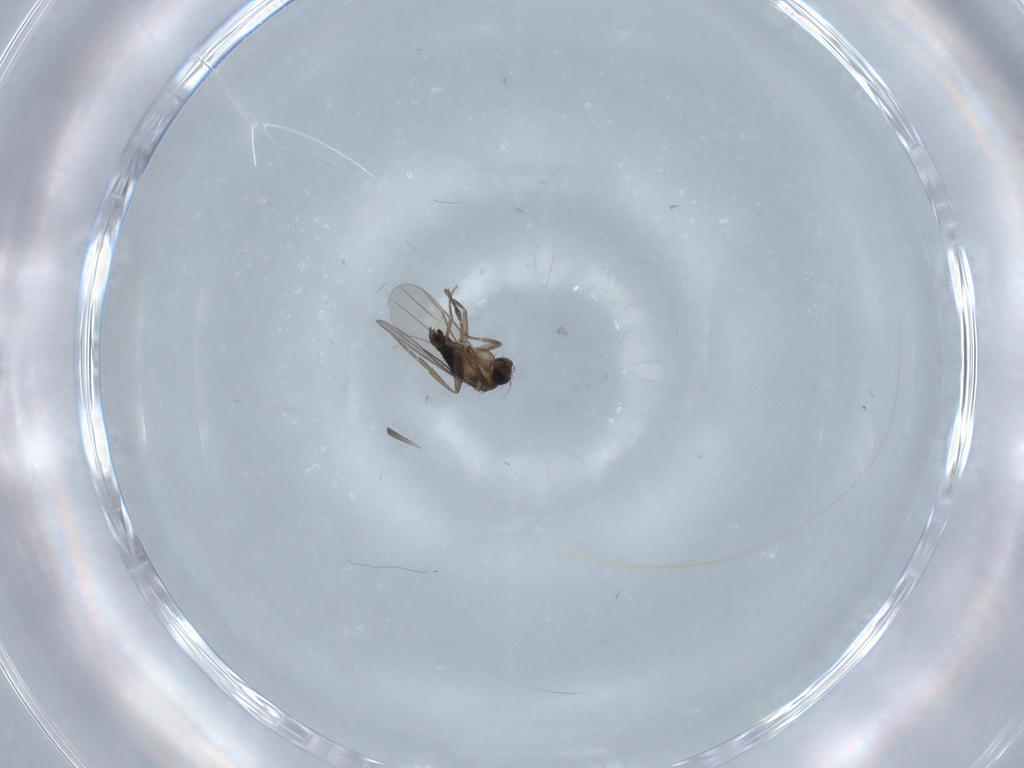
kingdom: Animalia
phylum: Arthropoda
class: Insecta
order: Diptera
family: Phoridae
